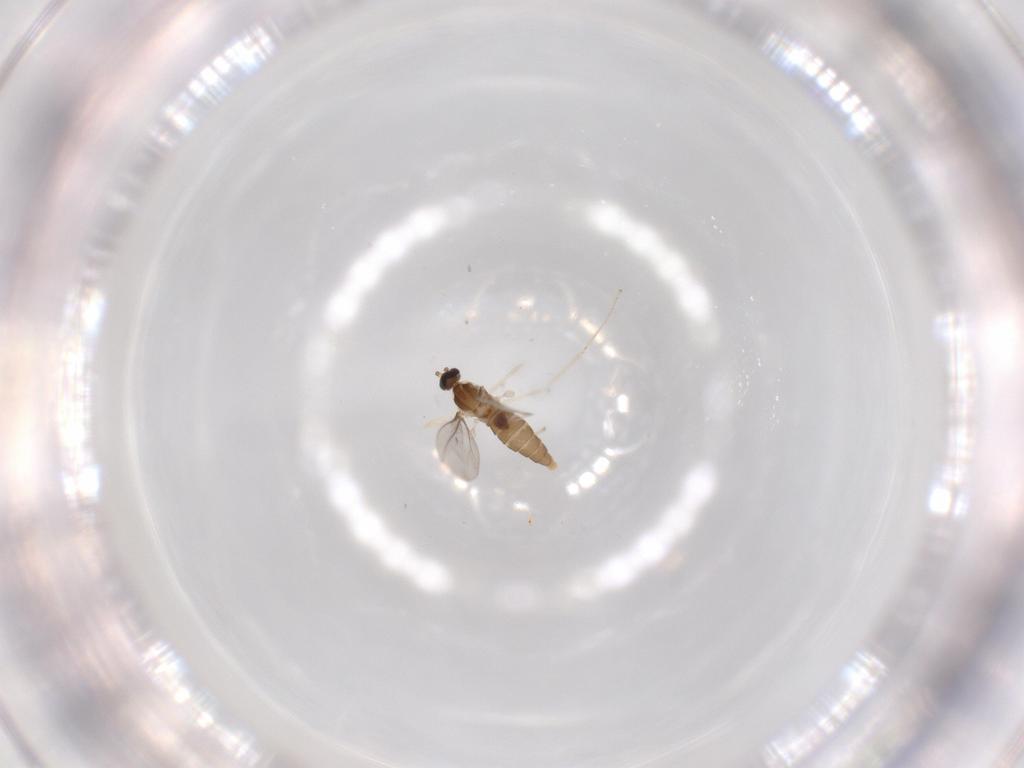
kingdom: Animalia
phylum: Arthropoda
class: Insecta
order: Diptera
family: Cecidomyiidae
